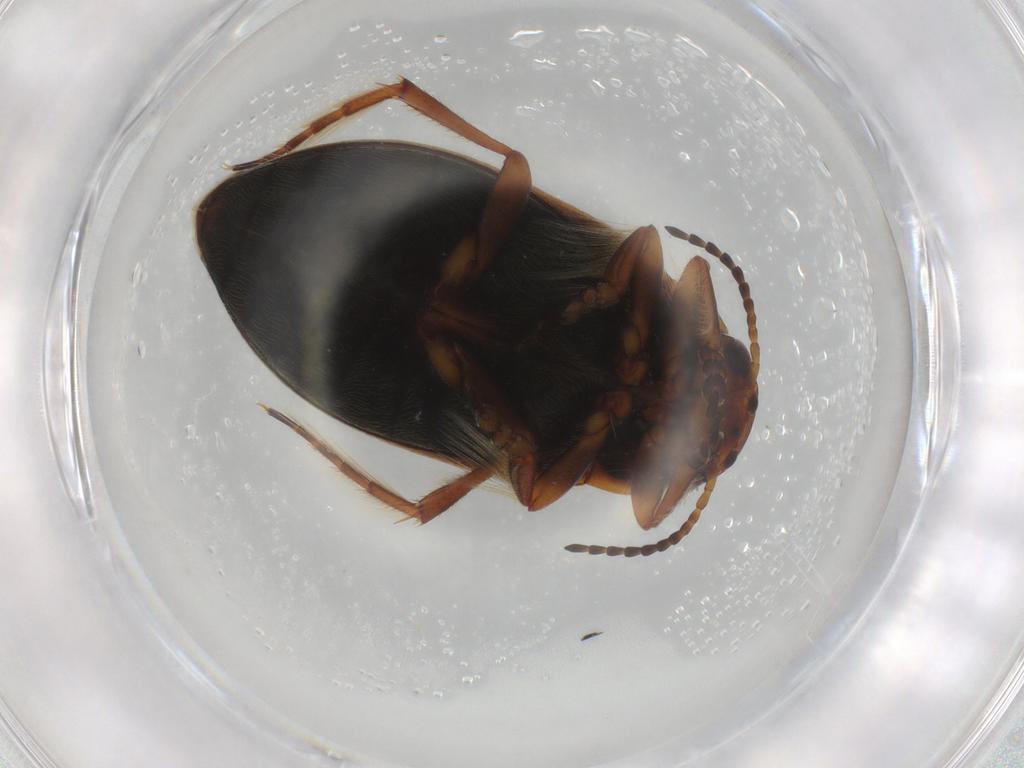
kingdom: Animalia
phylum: Arthropoda
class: Insecta
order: Coleoptera
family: Dytiscidae
